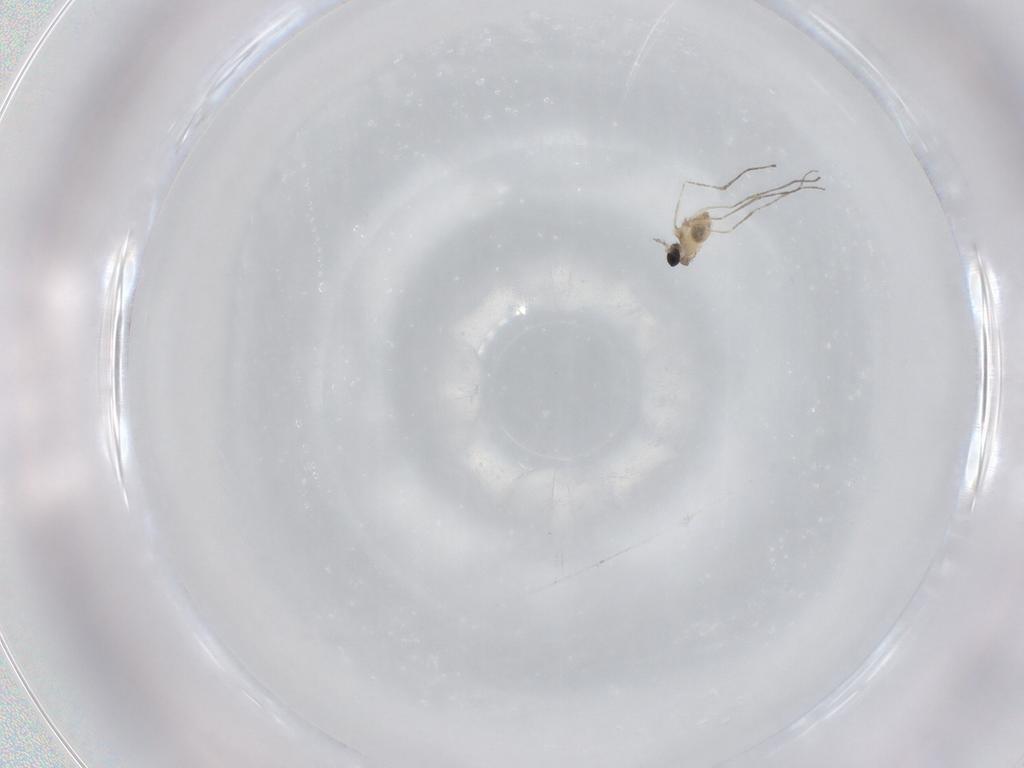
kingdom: Animalia
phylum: Arthropoda
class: Insecta
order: Diptera
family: Cecidomyiidae
